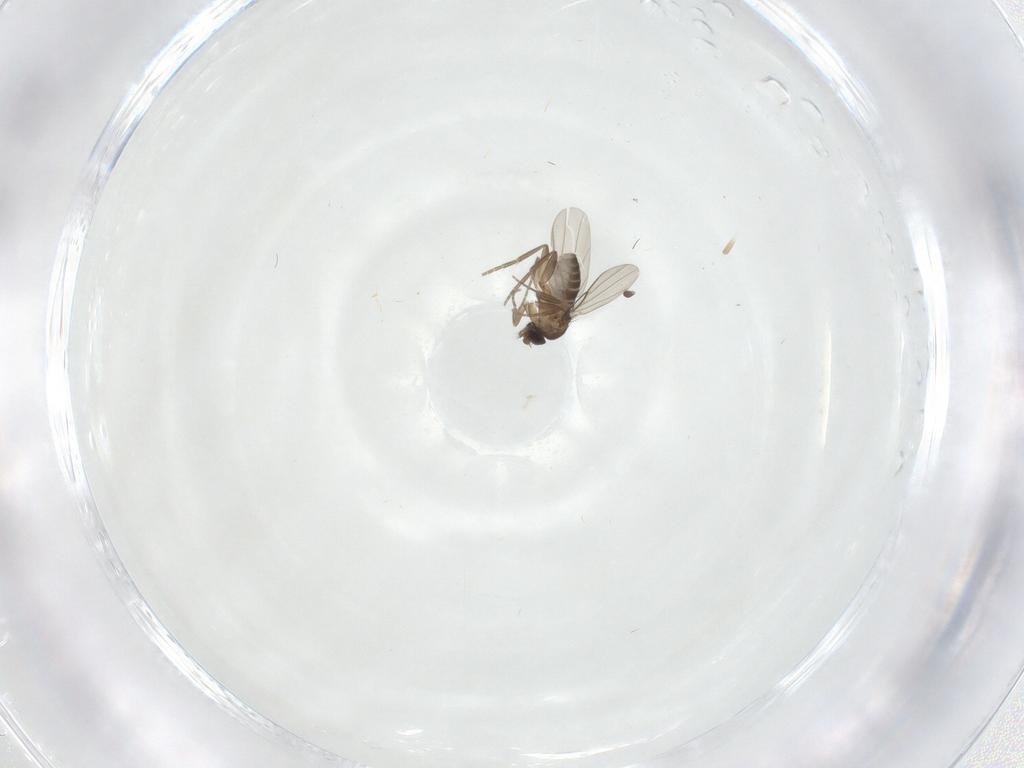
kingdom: Animalia
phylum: Arthropoda
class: Insecta
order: Diptera
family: Phoridae
